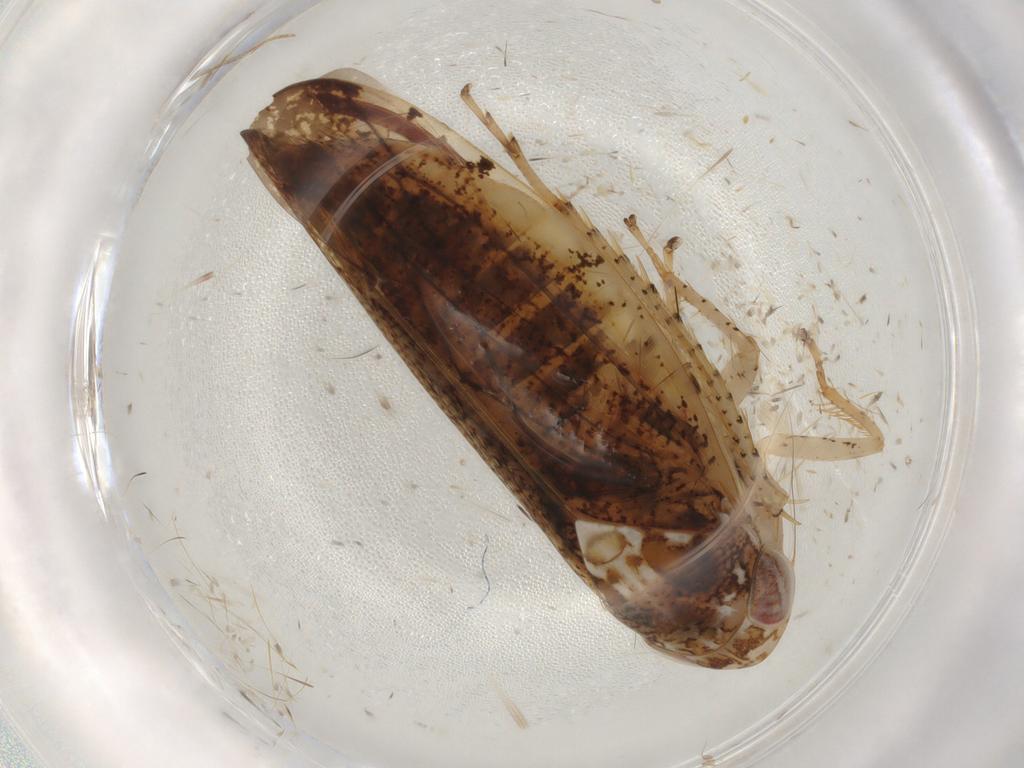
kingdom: Animalia
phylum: Arthropoda
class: Insecta
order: Hemiptera
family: Cicadellidae
